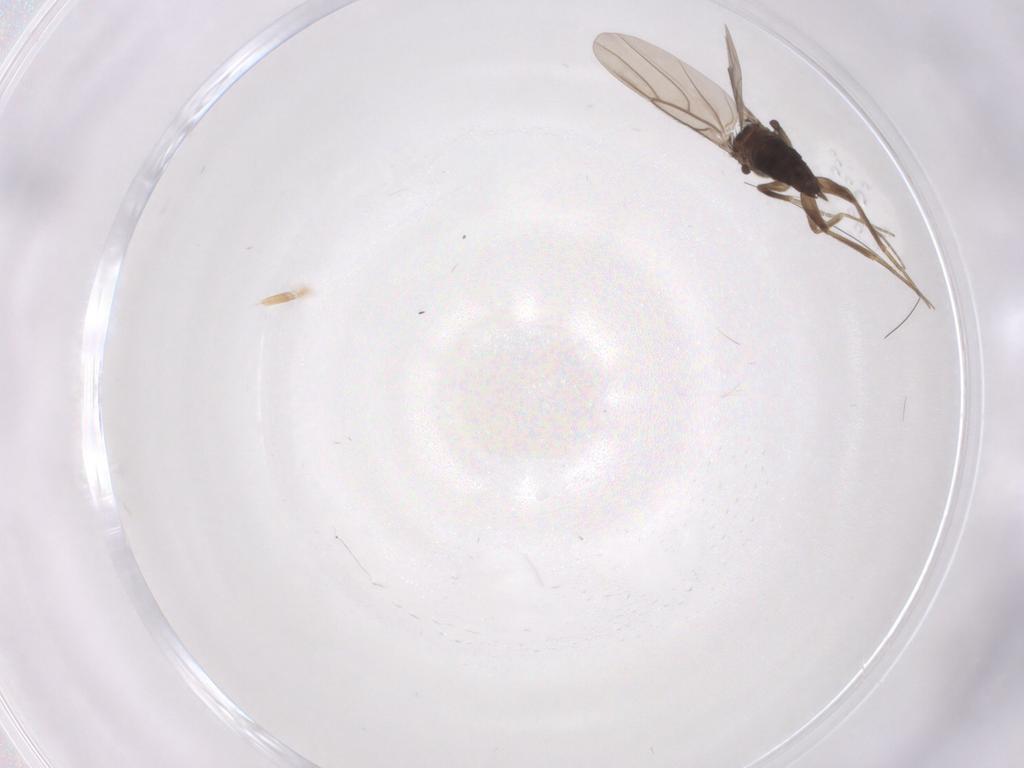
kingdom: Animalia
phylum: Arthropoda
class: Insecta
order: Diptera
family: Phoridae
